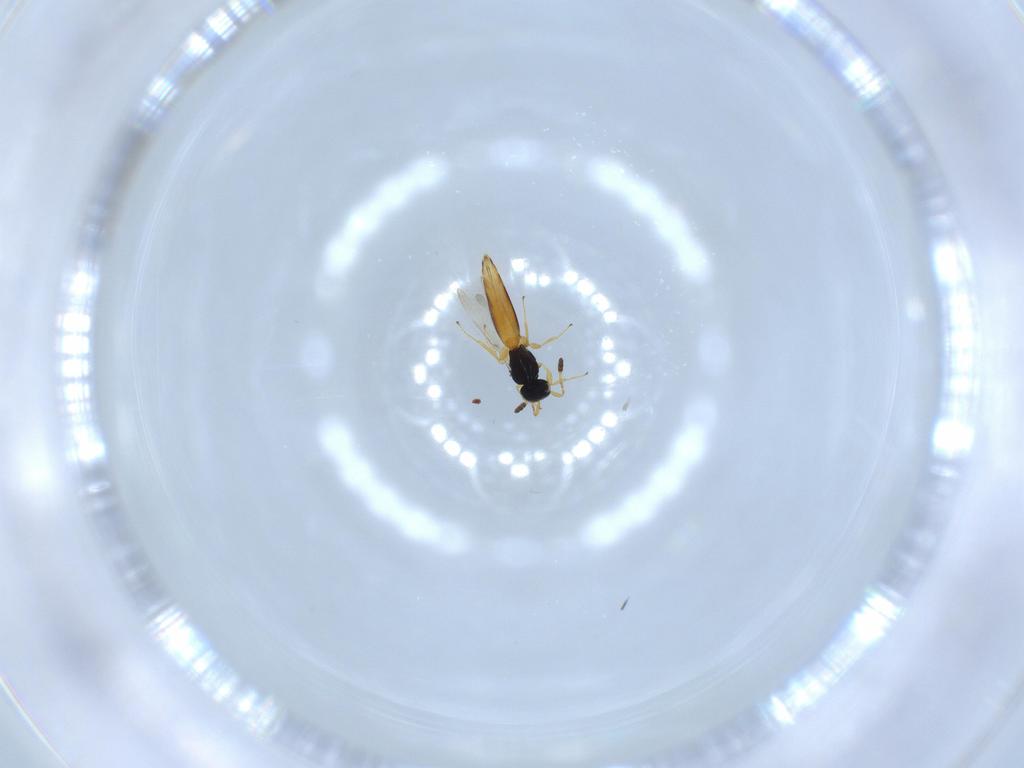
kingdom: Animalia
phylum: Arthropoda
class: Insecta
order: Hymenoptera
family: Scelionidae
